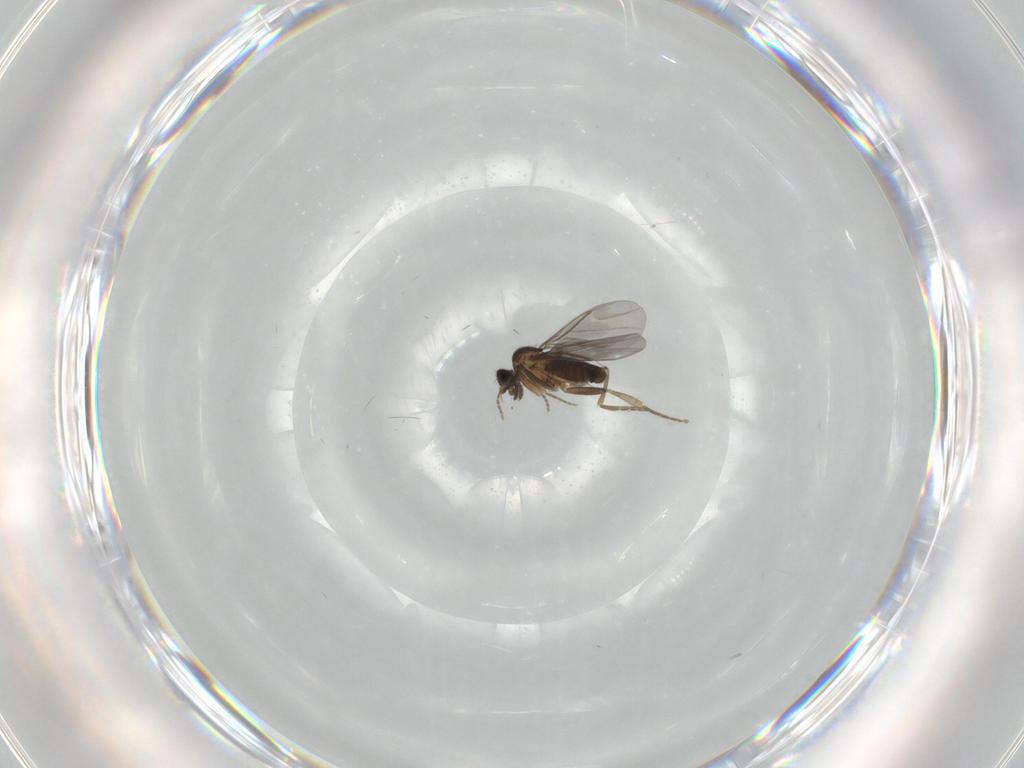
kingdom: Animalia
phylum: Arthropoda
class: Insecta
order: Diptera
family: Tabanidae
